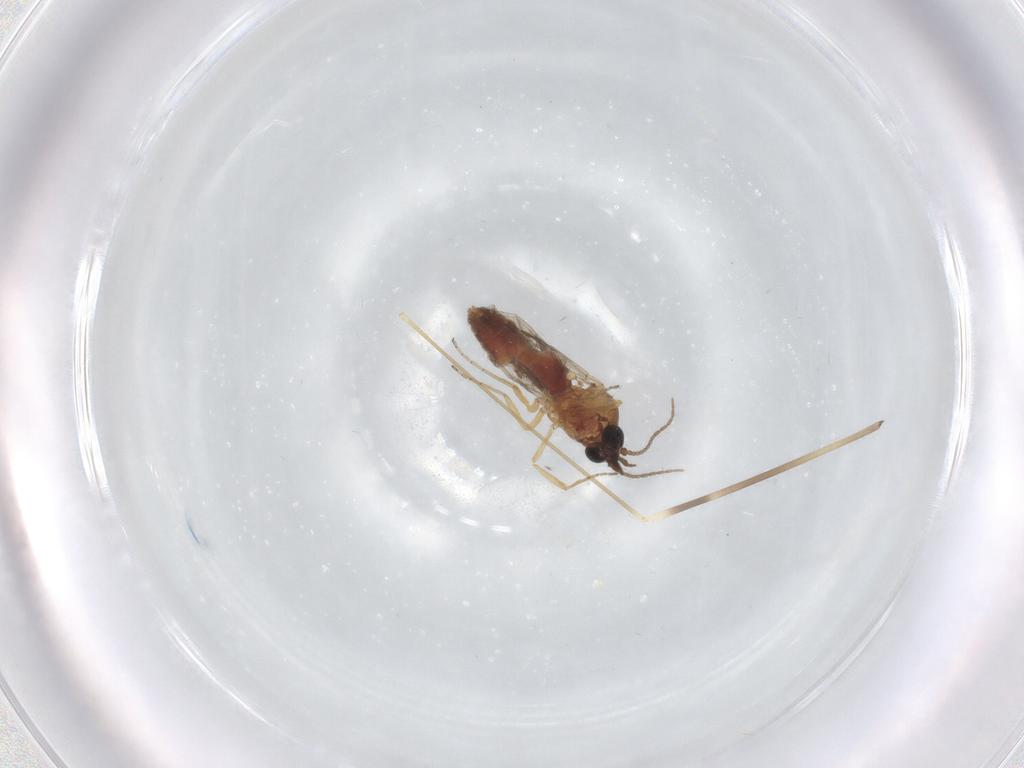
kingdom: Animalia
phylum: Arthropoda
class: Insecta
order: Diptera
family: Ceratopogonidae
